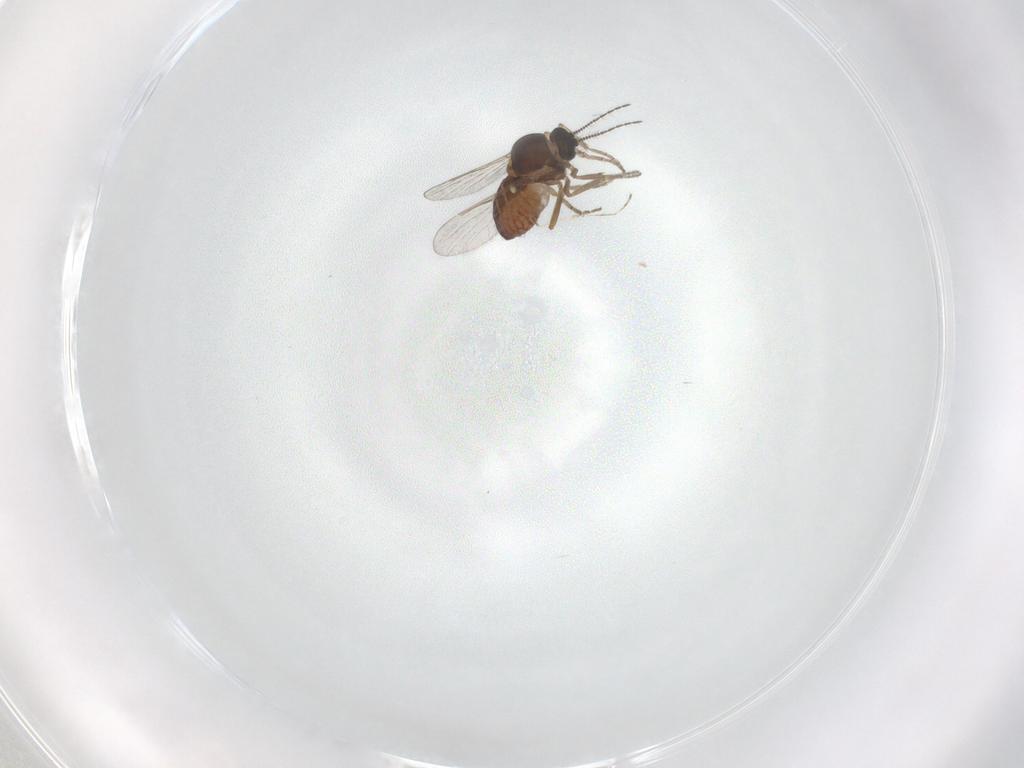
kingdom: Animalia
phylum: Arthropoda
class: Insecta
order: Diptera
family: Cecidomyiidae
